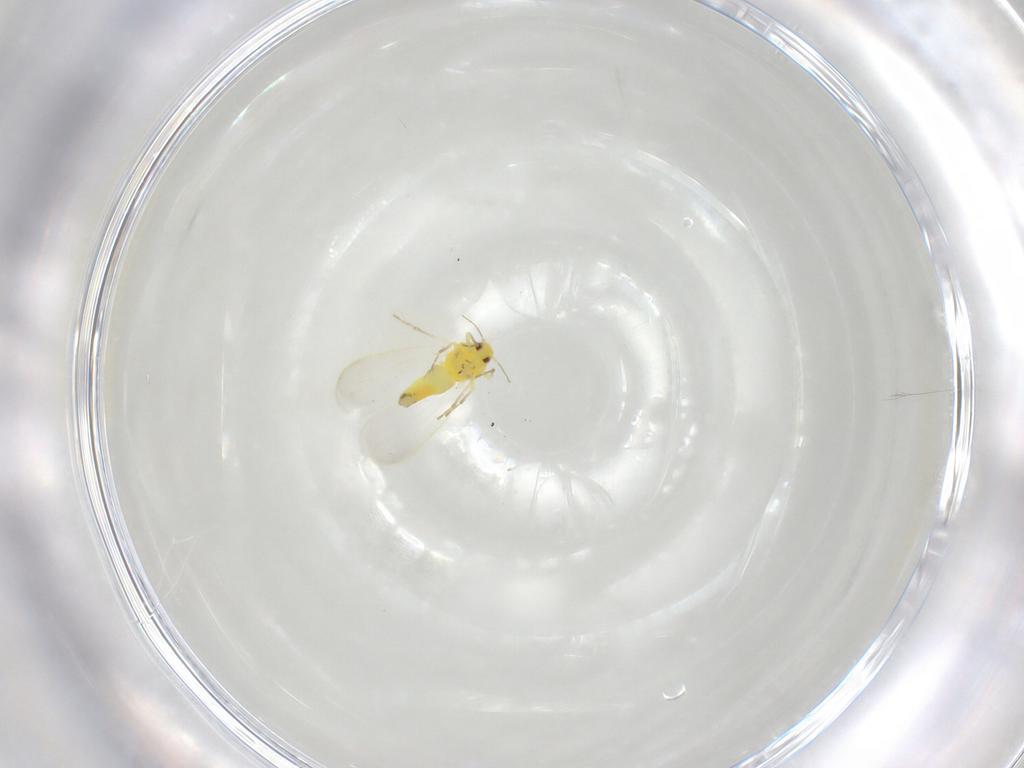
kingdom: Animalia
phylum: Arthropoda
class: Insecta
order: Hemiptera
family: Aleyrodidae
